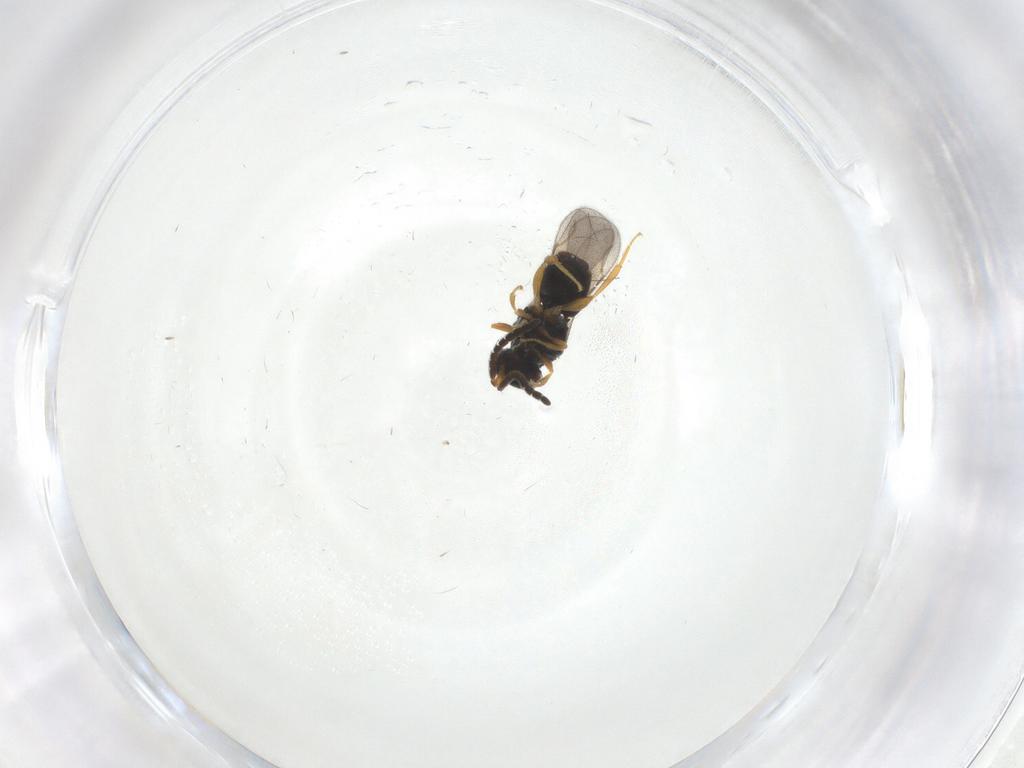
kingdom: Animalia
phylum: Arthropoda
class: Insecta
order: Hymenoptera
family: Ceraphronidae
